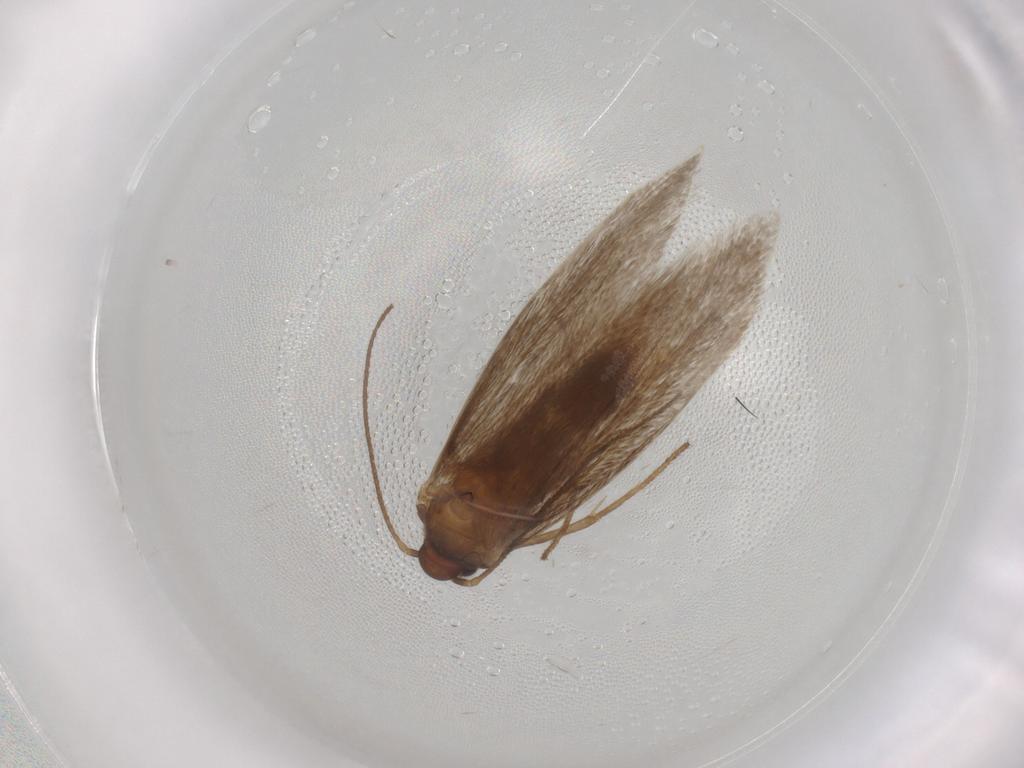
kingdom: Animalia
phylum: Arthropoda
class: Insecta
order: Lepidoptera
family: Limacodidae
